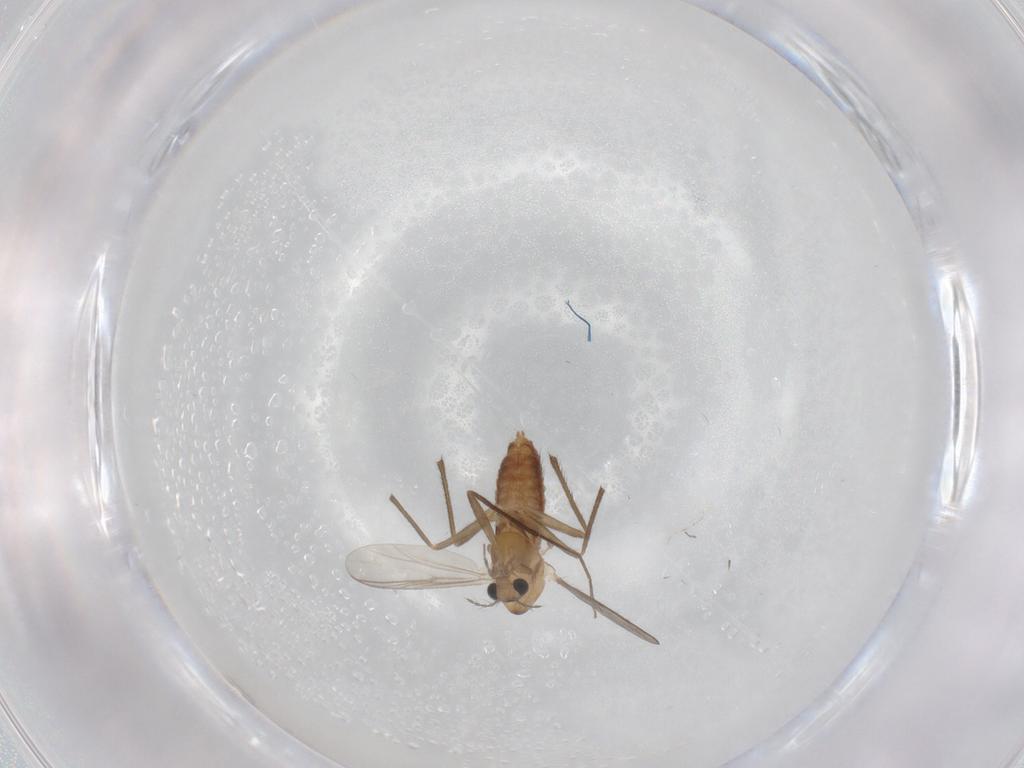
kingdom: Animalia
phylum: Arthropoda
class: Insecta
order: Diptera
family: Chironomidae
